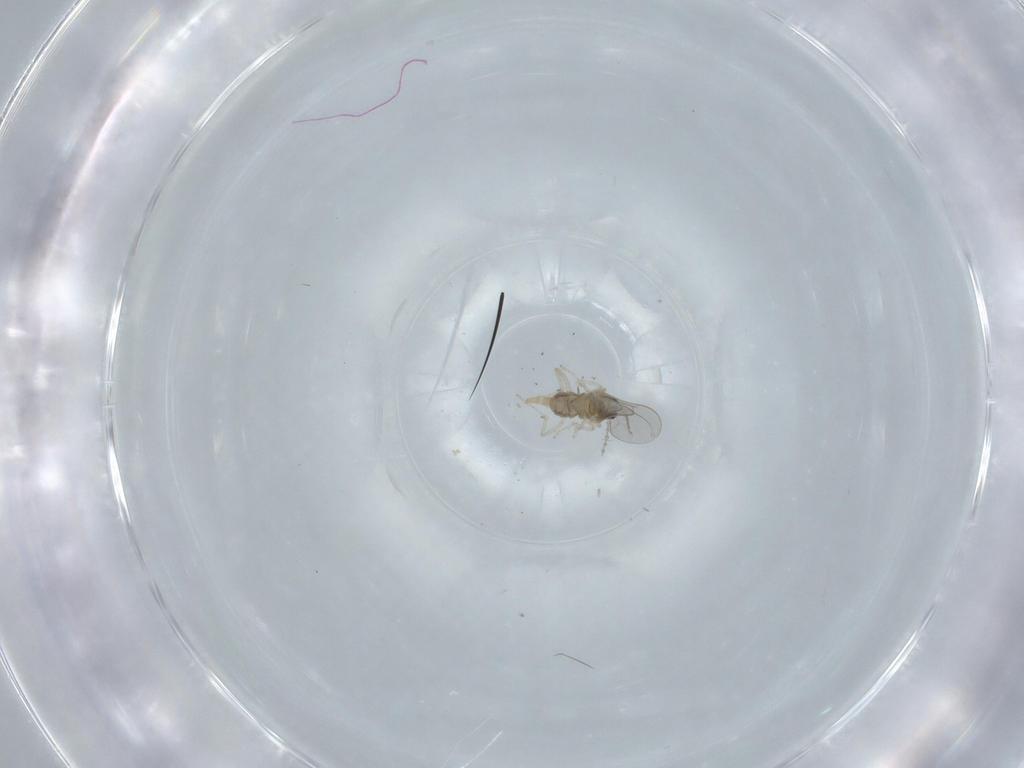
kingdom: Animalia
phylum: Arthropoda
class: Insecta
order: Diptera
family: Cecidomyiidae
